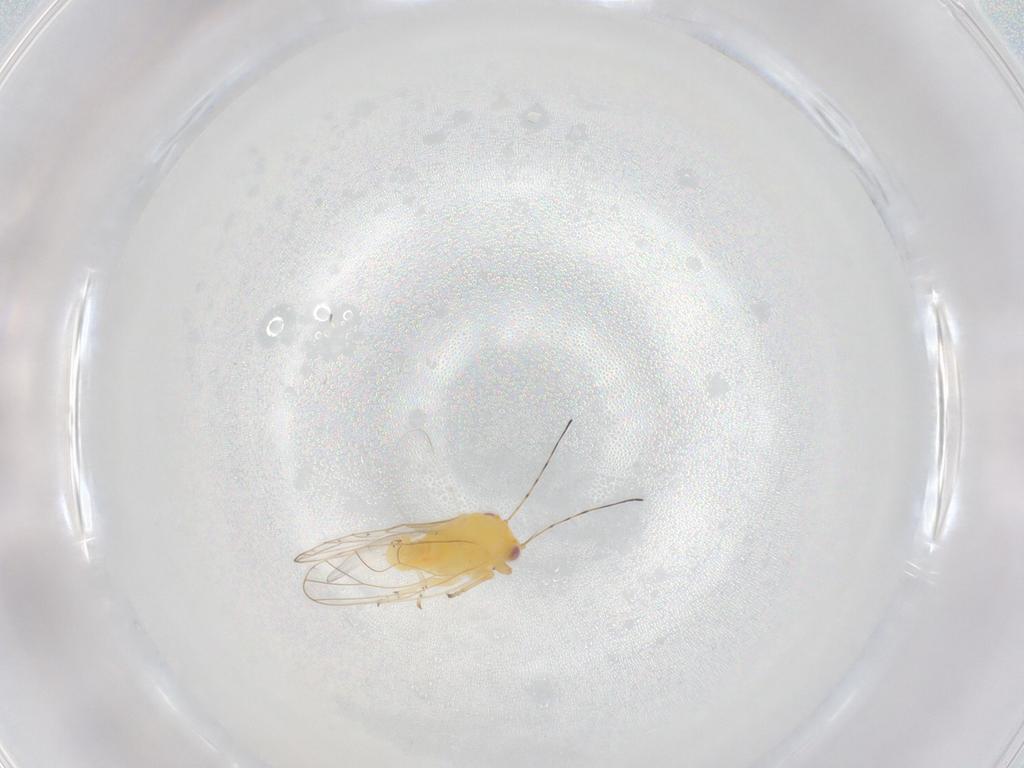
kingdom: Animalia
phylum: Arthropoda
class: Insecta
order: Hemiptera
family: Psyllidae
